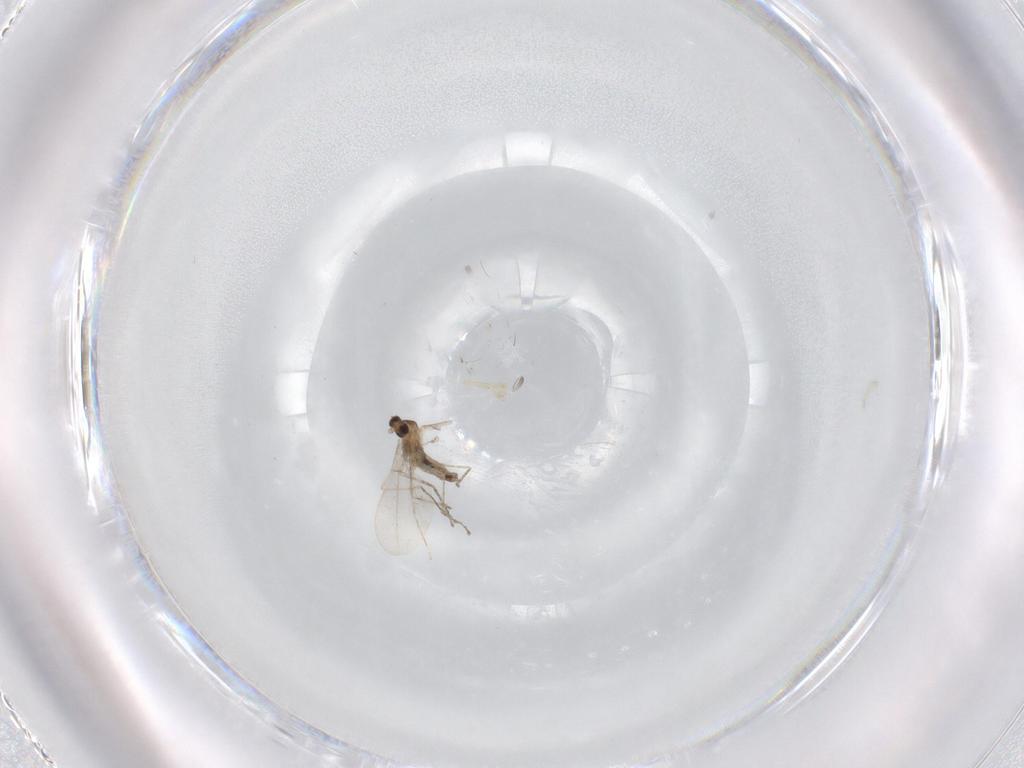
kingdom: Animalia
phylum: Arthropoda
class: Insecta
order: Diptera
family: Cecidomyiidae
